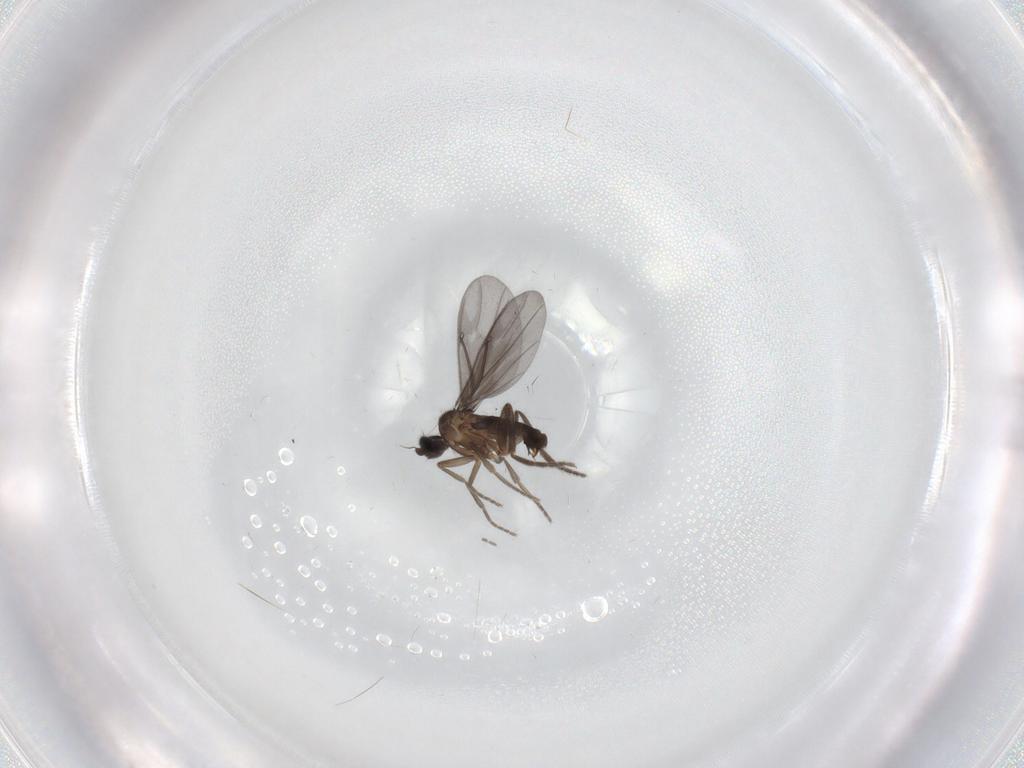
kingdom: Animalia
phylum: Arthropoda
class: Insecta
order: Diptera
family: Phoridae
